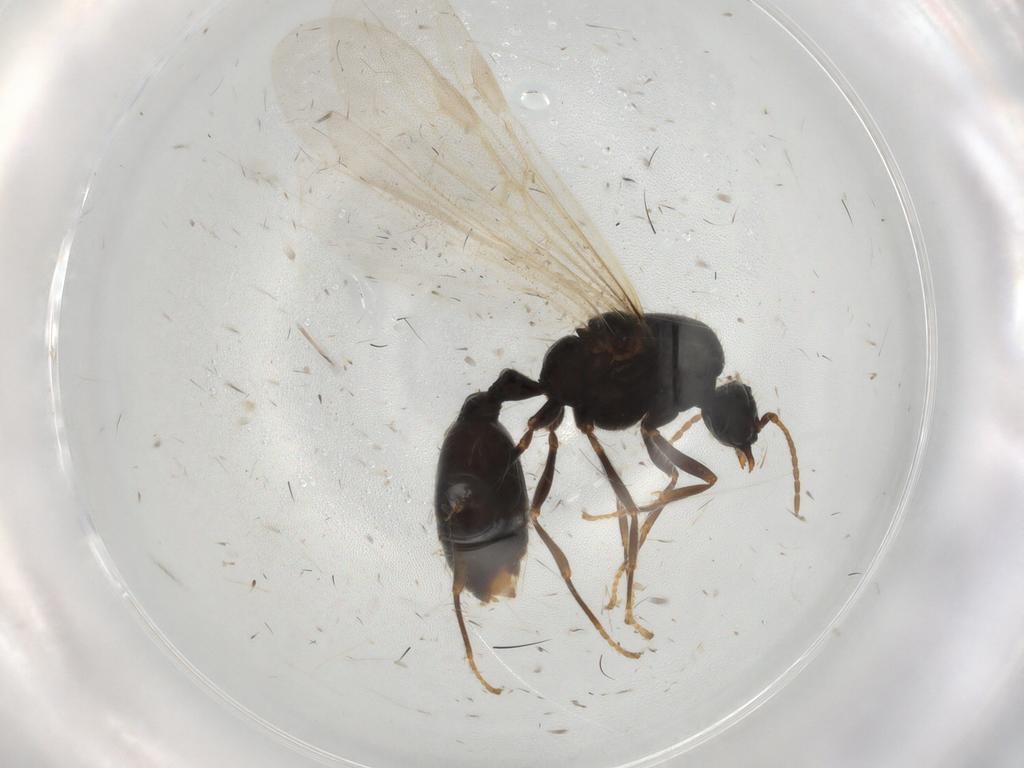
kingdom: Animalia
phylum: Arthropoda
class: Insecta
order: Hymenoptera
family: Formicidae
